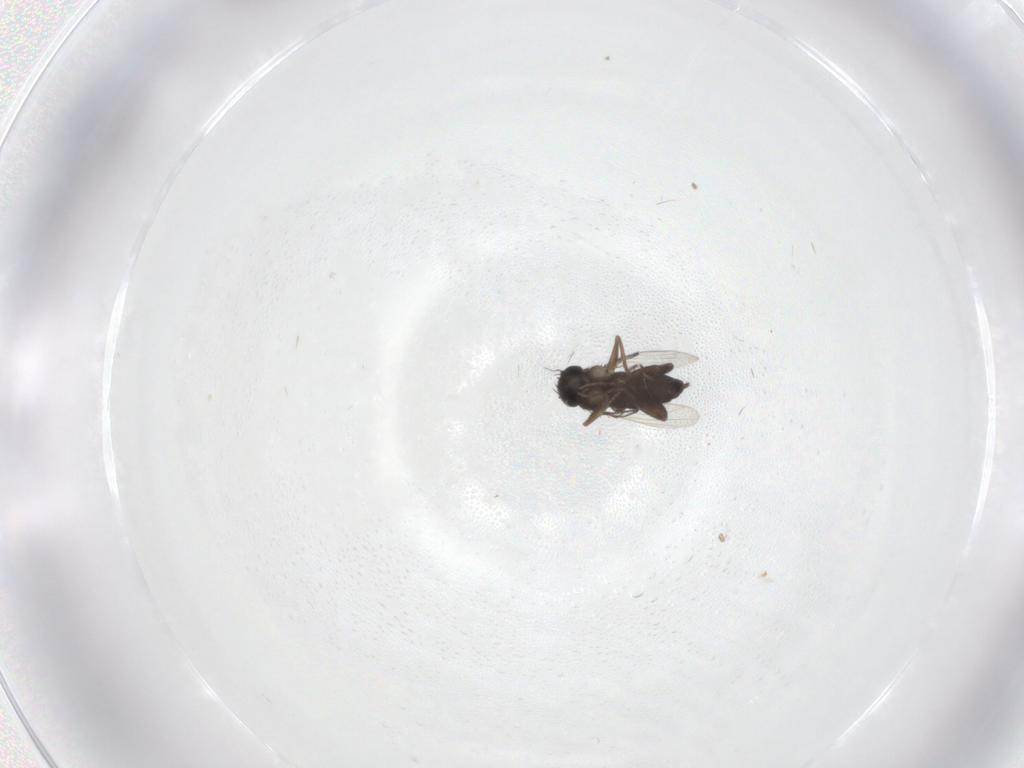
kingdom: Animalia
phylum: Arthropoda
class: Insecta
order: Diptera
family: Phoridae
